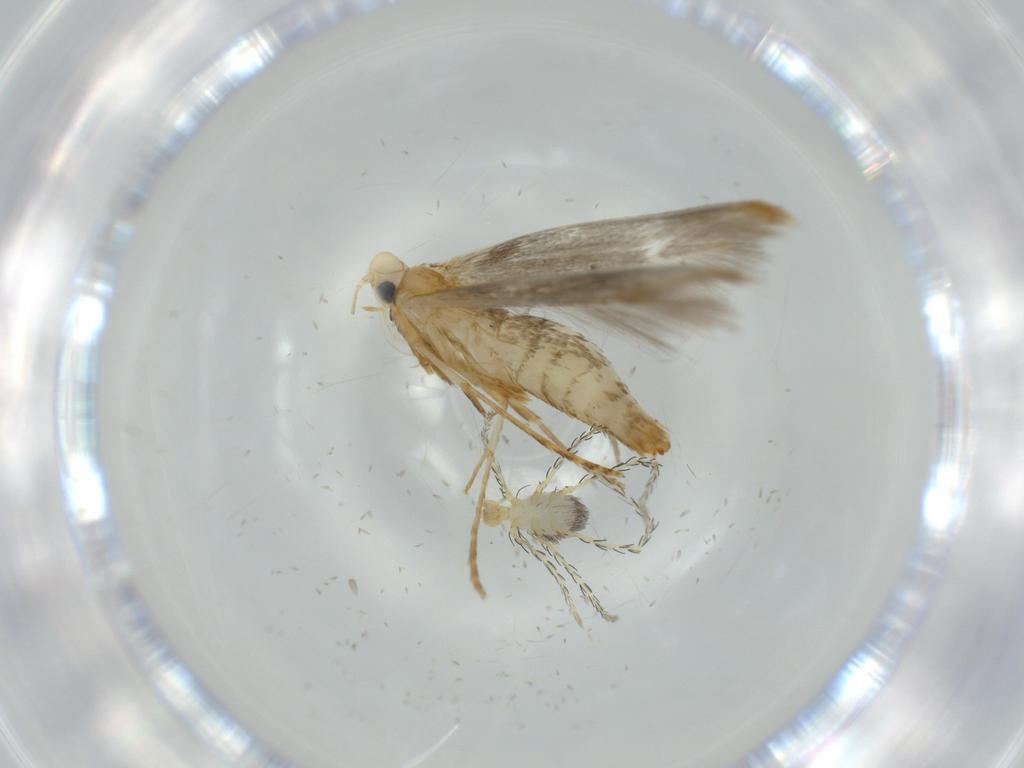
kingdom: Animalia
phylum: Arthropoda
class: Arachnida
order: Trombidiformes
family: Erythraeidae
